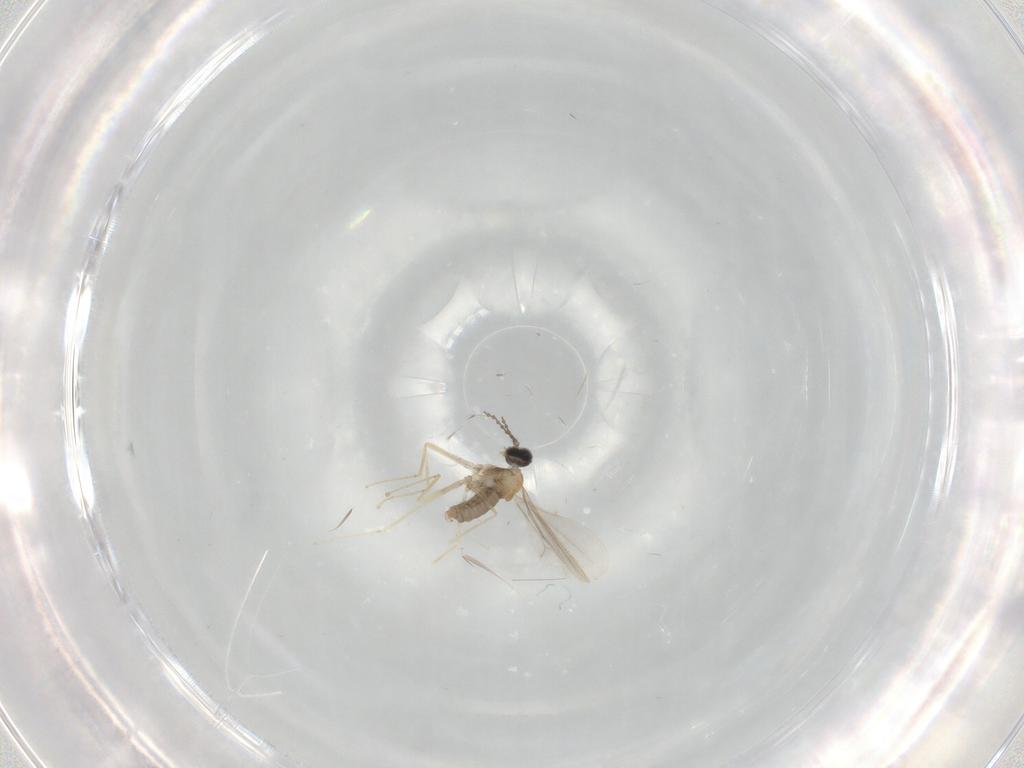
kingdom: Animalia
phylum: Arthropoda
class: Insecta
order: Diptera
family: Cecidomyiidae
